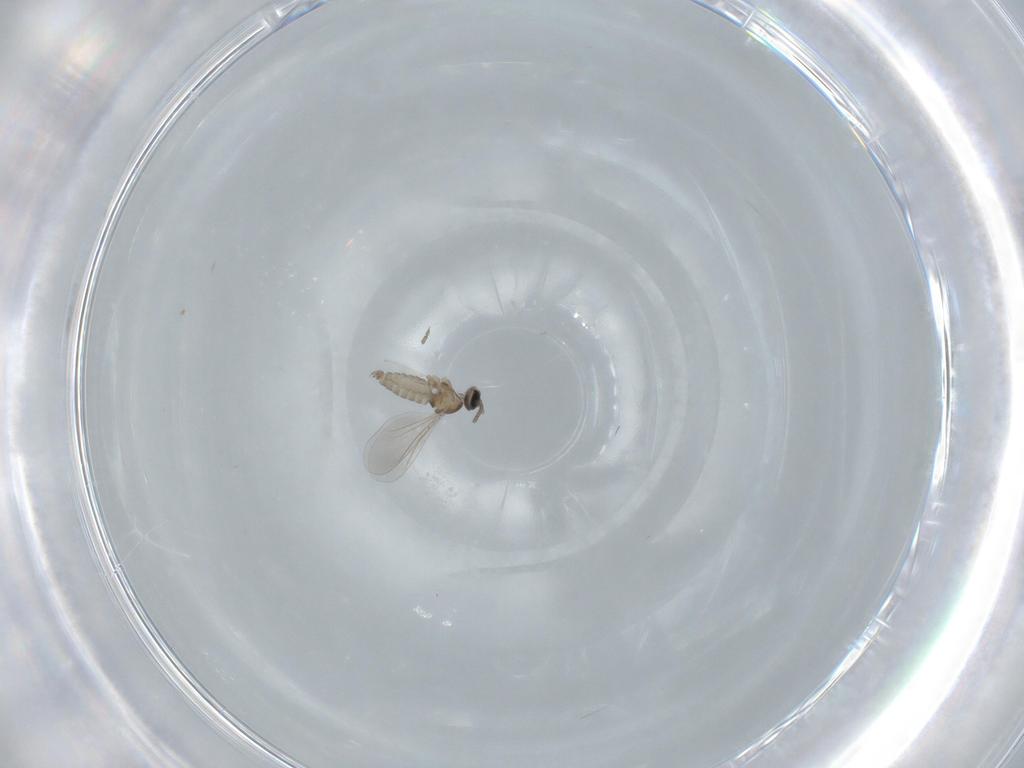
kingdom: Animalia
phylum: Arthropoda
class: Insecta
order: Diptera
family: Cecidomyiidae
